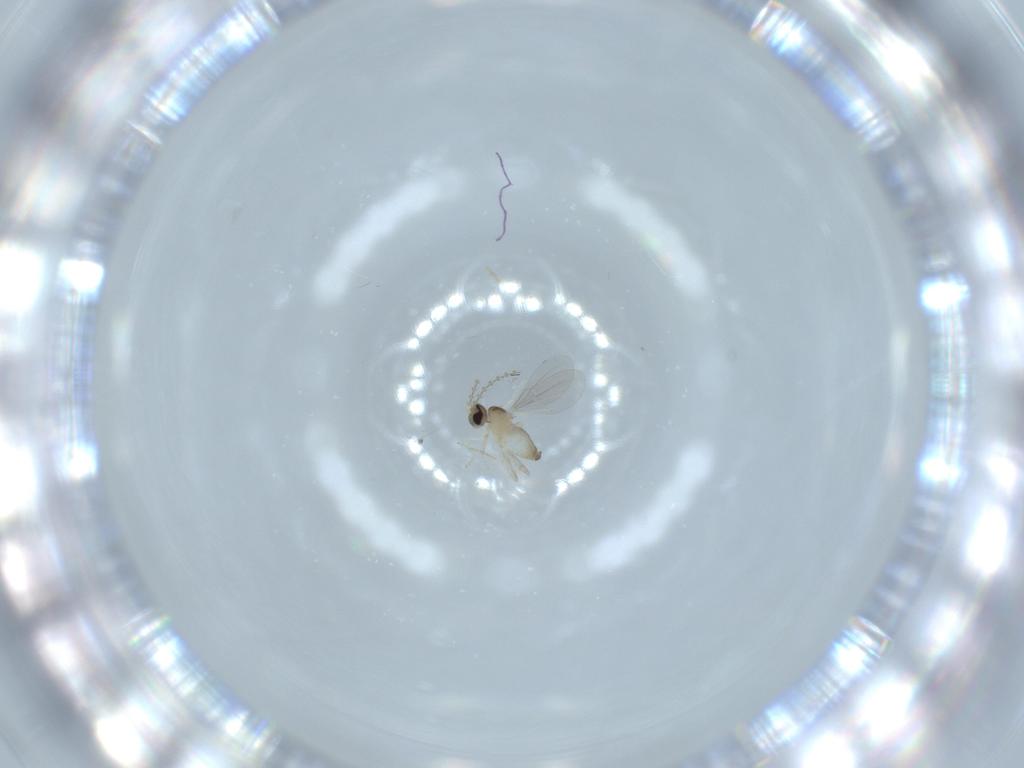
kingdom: Animalia
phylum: Arthropoda
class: Insecta
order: Diptera
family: Cecidomyiidae
